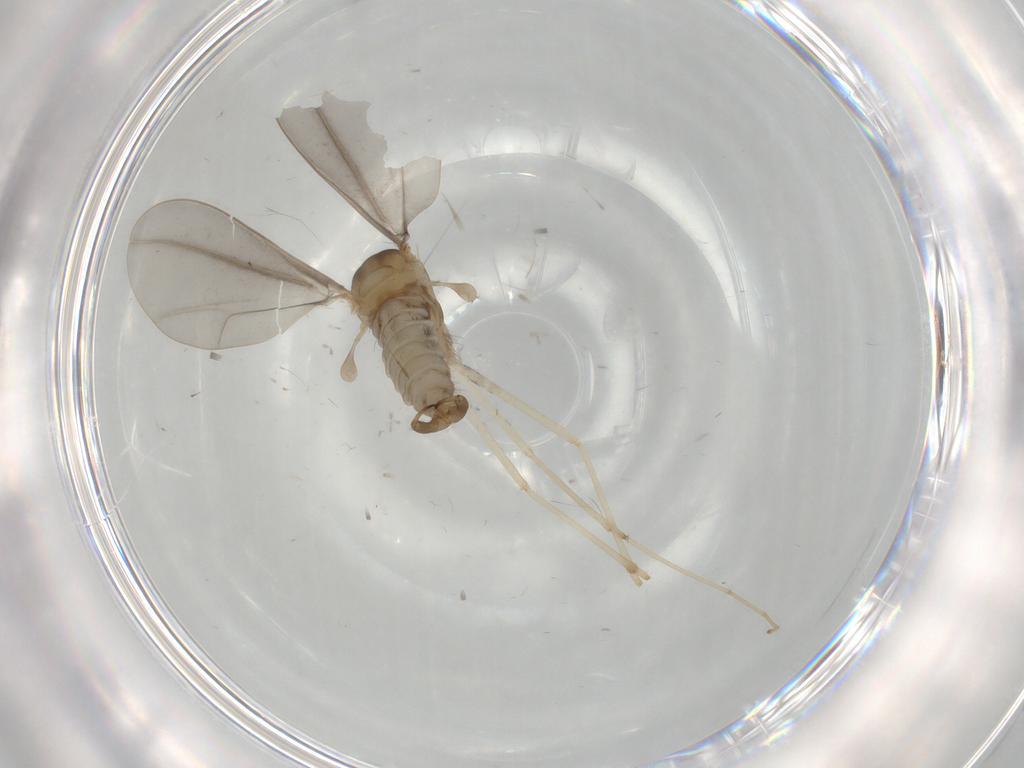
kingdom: Animalia
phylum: Arthropoda
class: Insecta
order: Diptera
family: Cecidomyiidae
